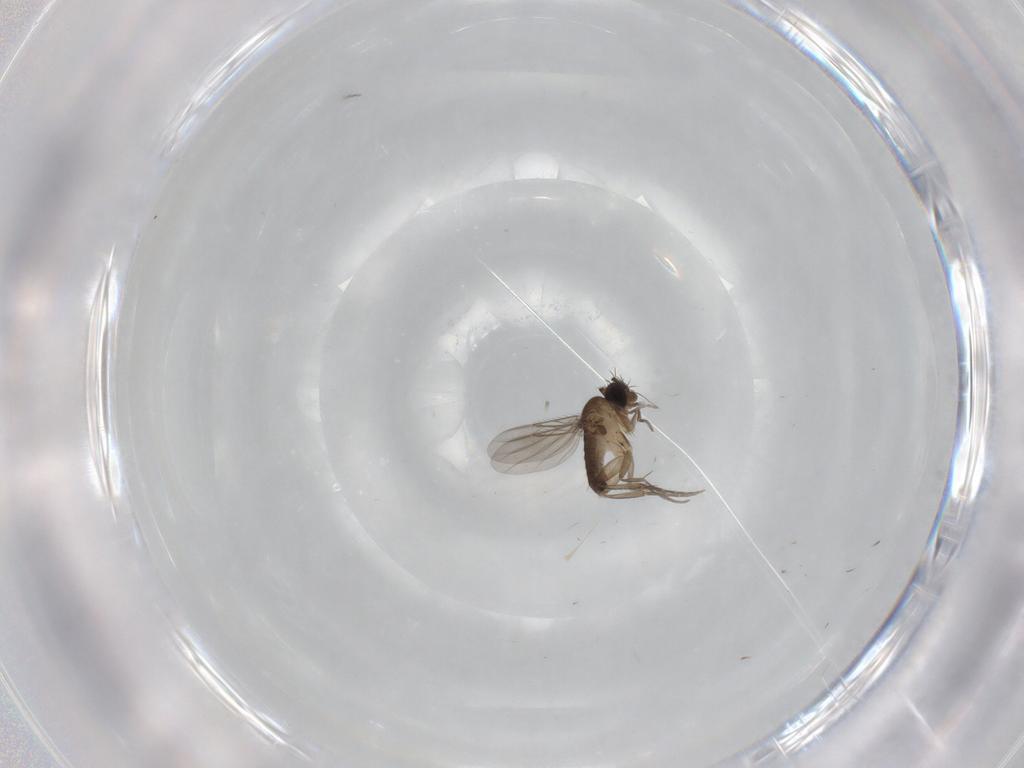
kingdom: Animalia
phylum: Arthropoda
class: Insecta
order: Diptera
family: Phoridae
